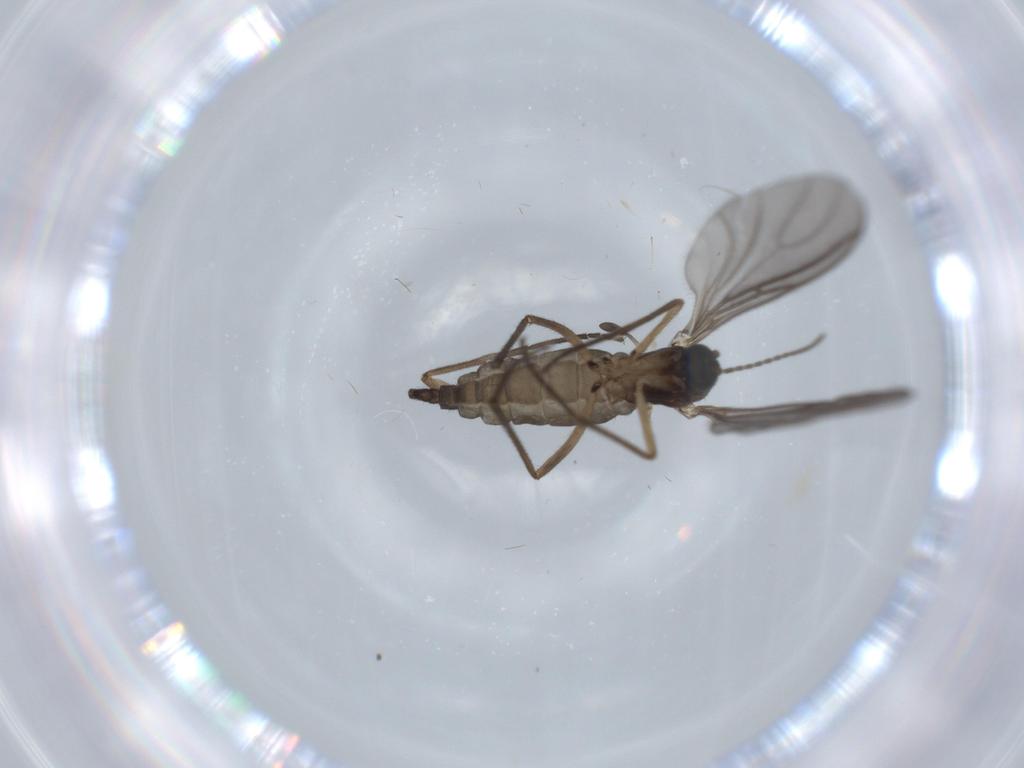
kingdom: Animalia
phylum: Arthropoda
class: Insecta
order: Diptera
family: Sciaridae
